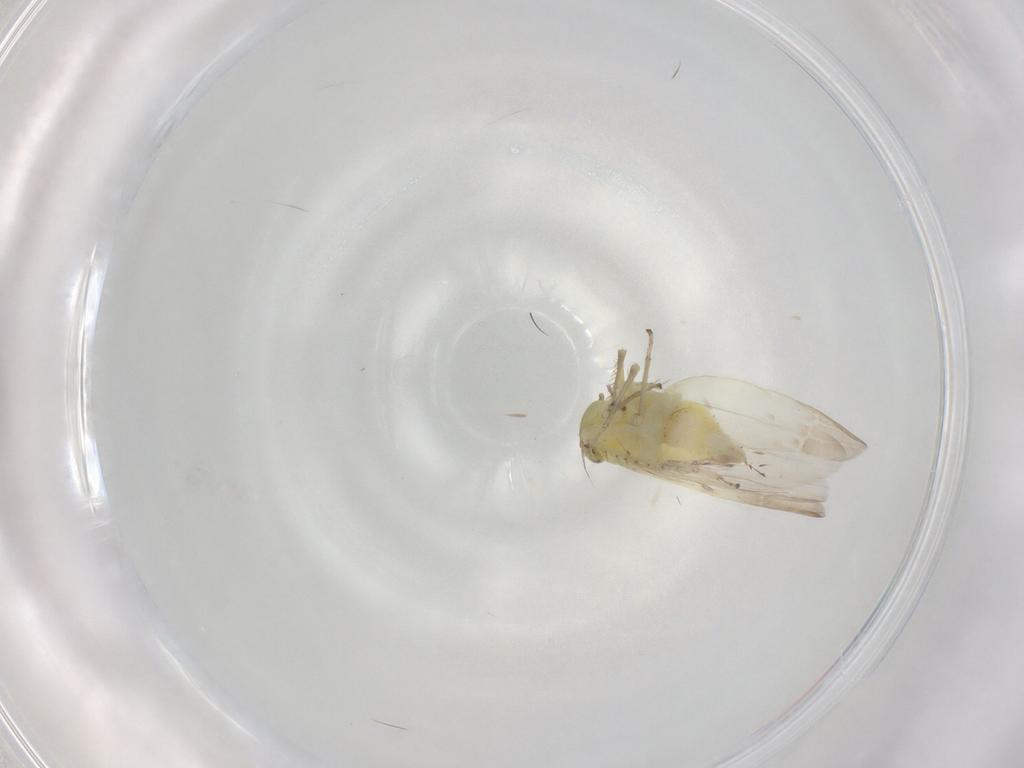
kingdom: Animalia
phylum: Arthropoda
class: Insecta
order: Hemiptera
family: Cicadellidae
